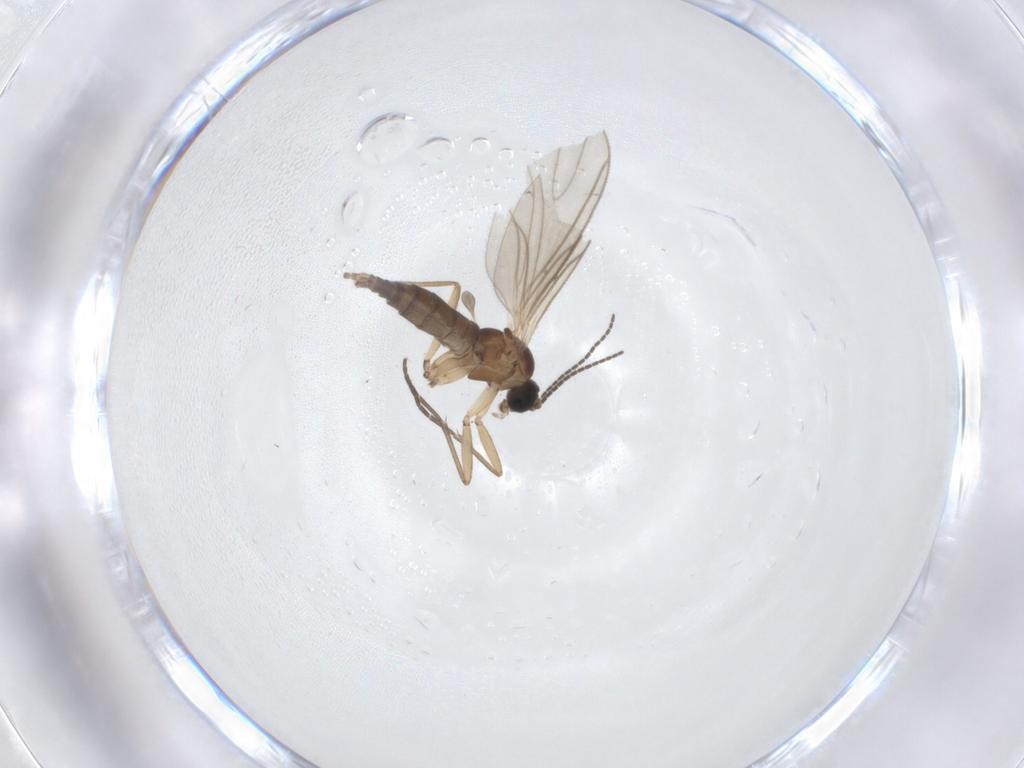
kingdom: Animalia
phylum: Arthropoda
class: Insecta
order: Diptera
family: Sciaridae
